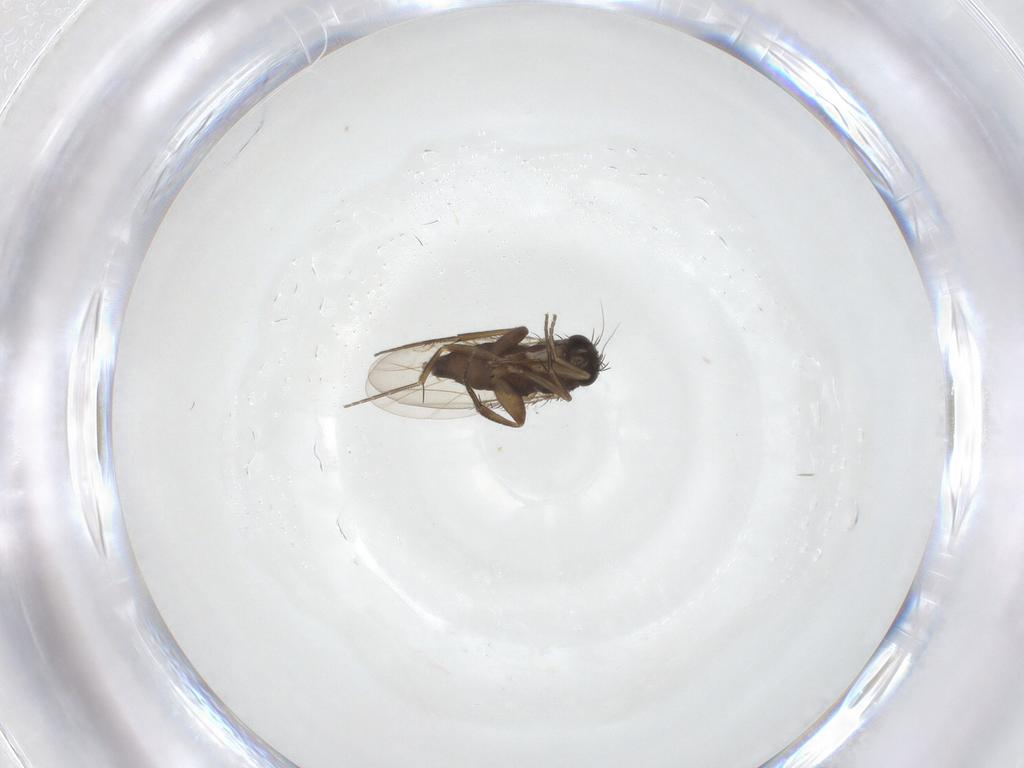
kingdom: Animalia
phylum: Arthropoda
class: Insecta
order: Diptera
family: Phoridae
